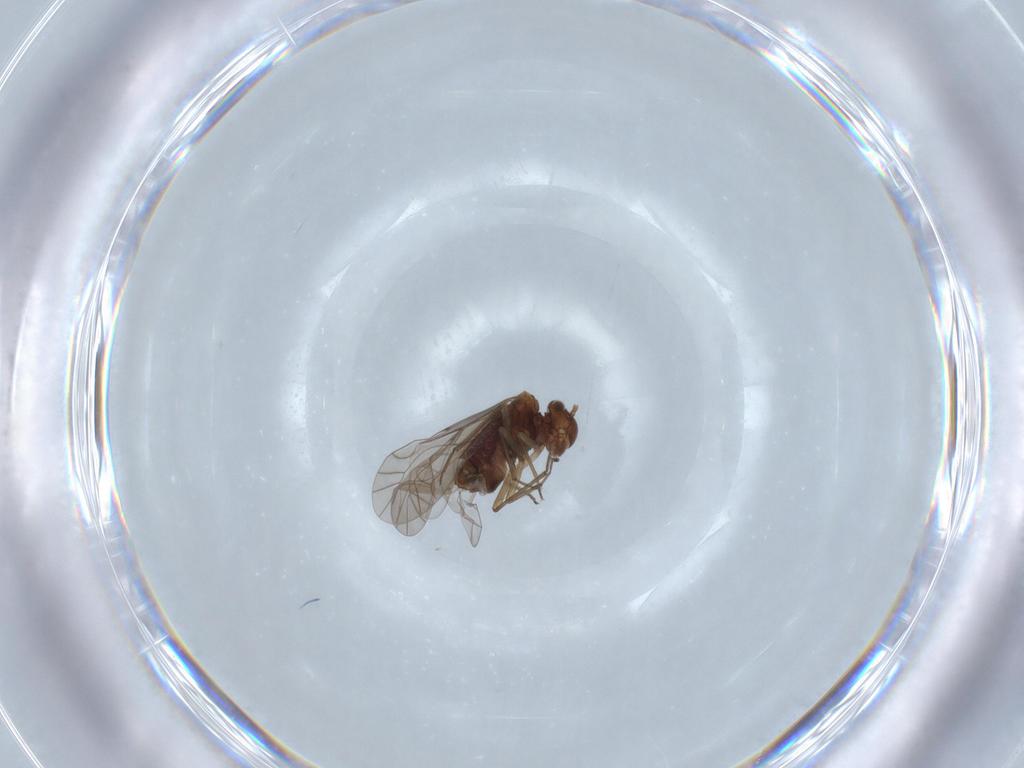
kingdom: Animalia
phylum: Arthropoda
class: Insecta
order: Psocodea
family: Lachesillidae
